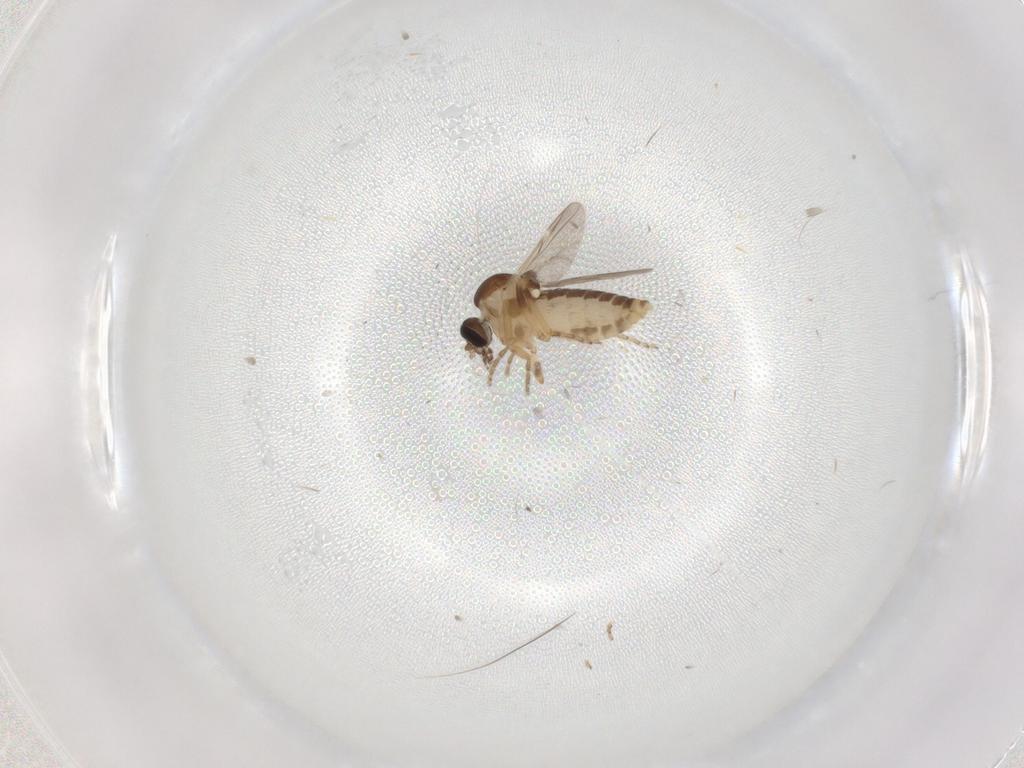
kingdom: Animalia
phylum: Arthropoda
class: Insecta
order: Diptera
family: Ceratopogonidae
